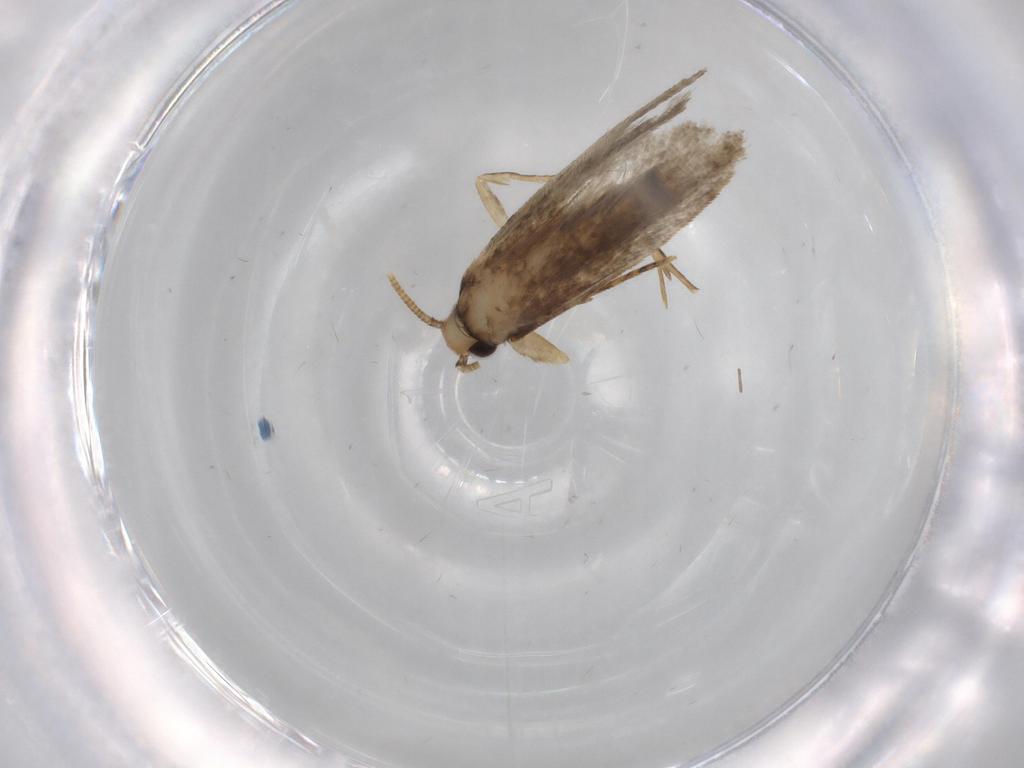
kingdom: Animalia
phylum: Arthropoda
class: Insecta
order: Lepidoptera
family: Tineidae
